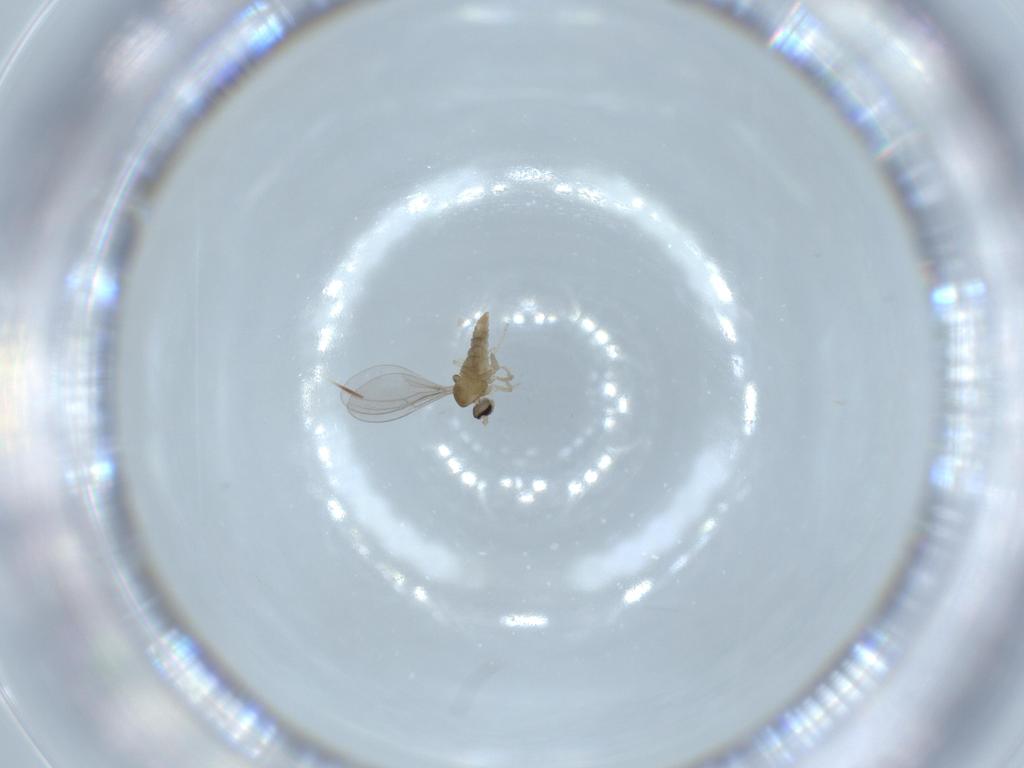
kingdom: Animalia
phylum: Arthropoda
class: Insecta
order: Diptera
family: Cecidomyiidae
